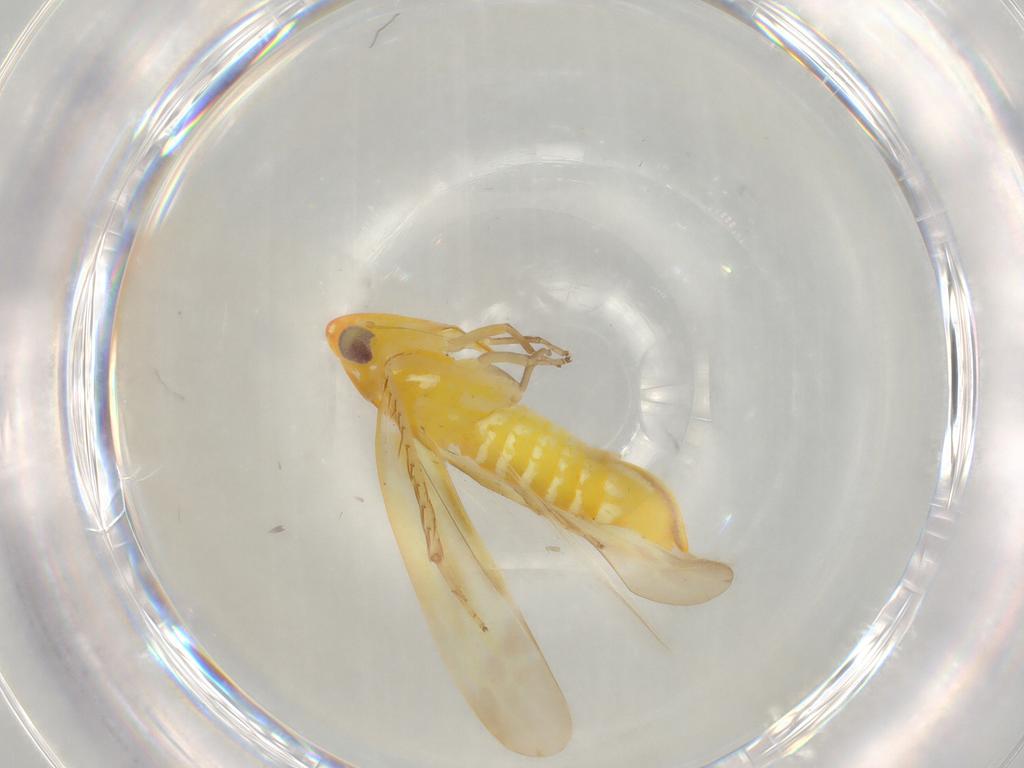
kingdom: Animalia
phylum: Arthropoda
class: Insecta
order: Hemiptera
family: Cicadellidae
